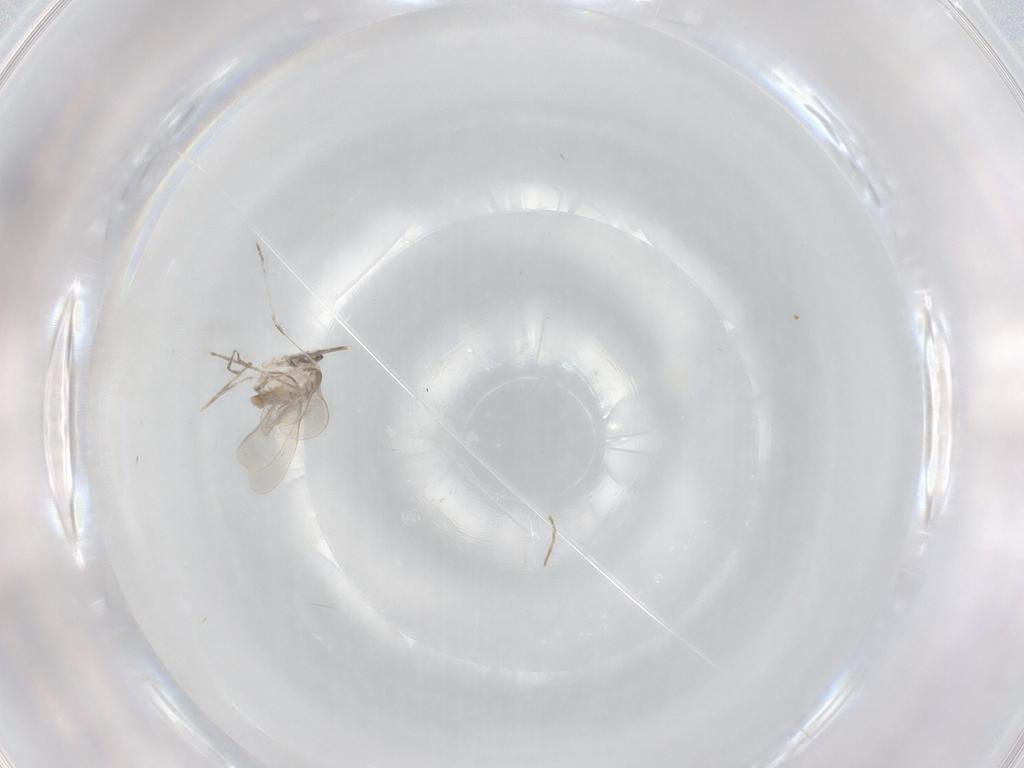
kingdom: Animalia
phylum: Arthropoda
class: Insecta
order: Diptera
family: Cecidomyiidae
